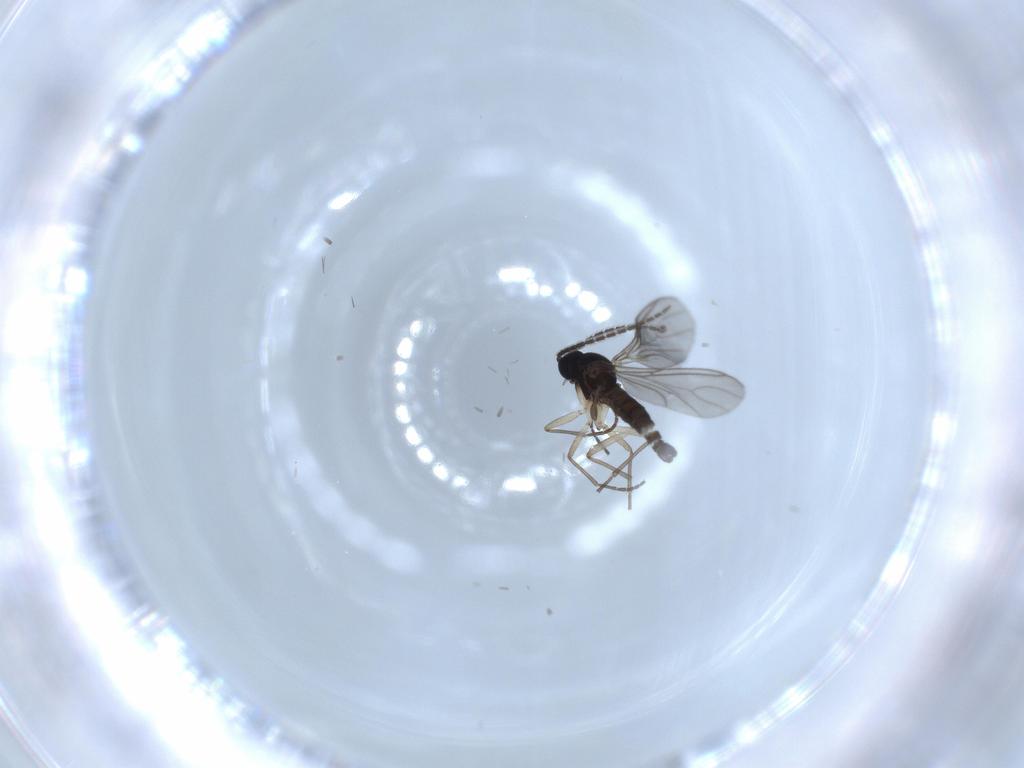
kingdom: Animalia
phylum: Arthropoda
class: Insecta
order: Diptera
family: Sciaridae
